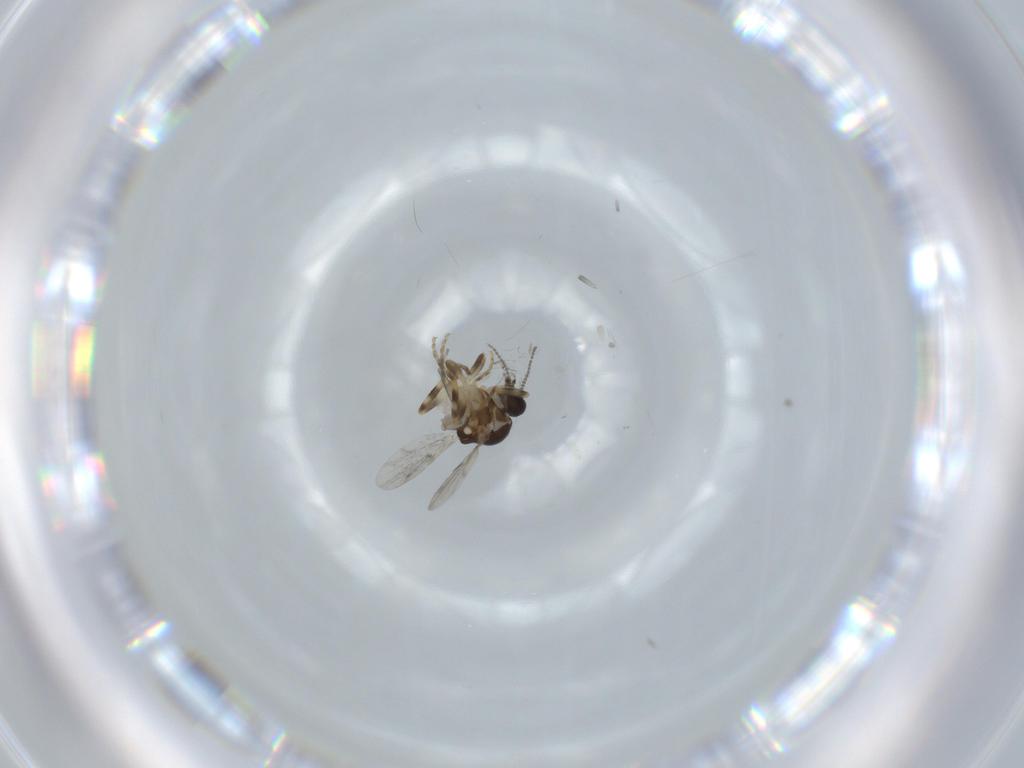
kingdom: Animalia
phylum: Arthropoda
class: Insecta
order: Diptera
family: Ceratopogonidae
